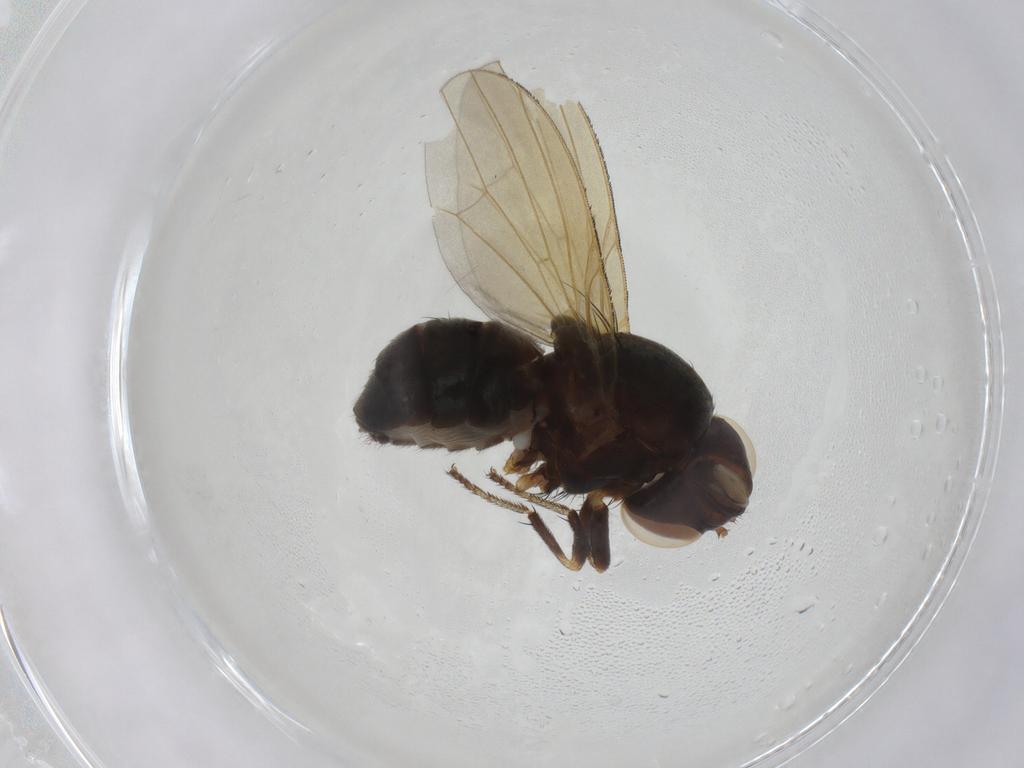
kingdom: Animalia
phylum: Arthropoda
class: Insecta
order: Diptera
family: Lauxaniidae
